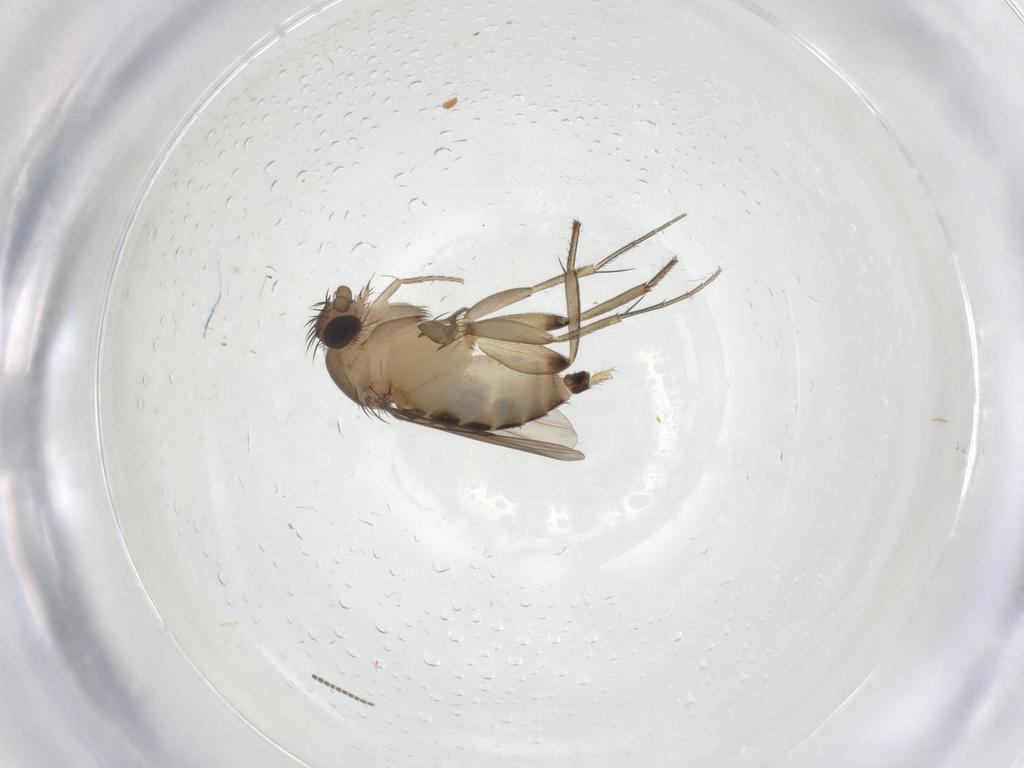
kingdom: Animalia
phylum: Arthropoda
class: Insecta
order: Diptera
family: Sciaridae
